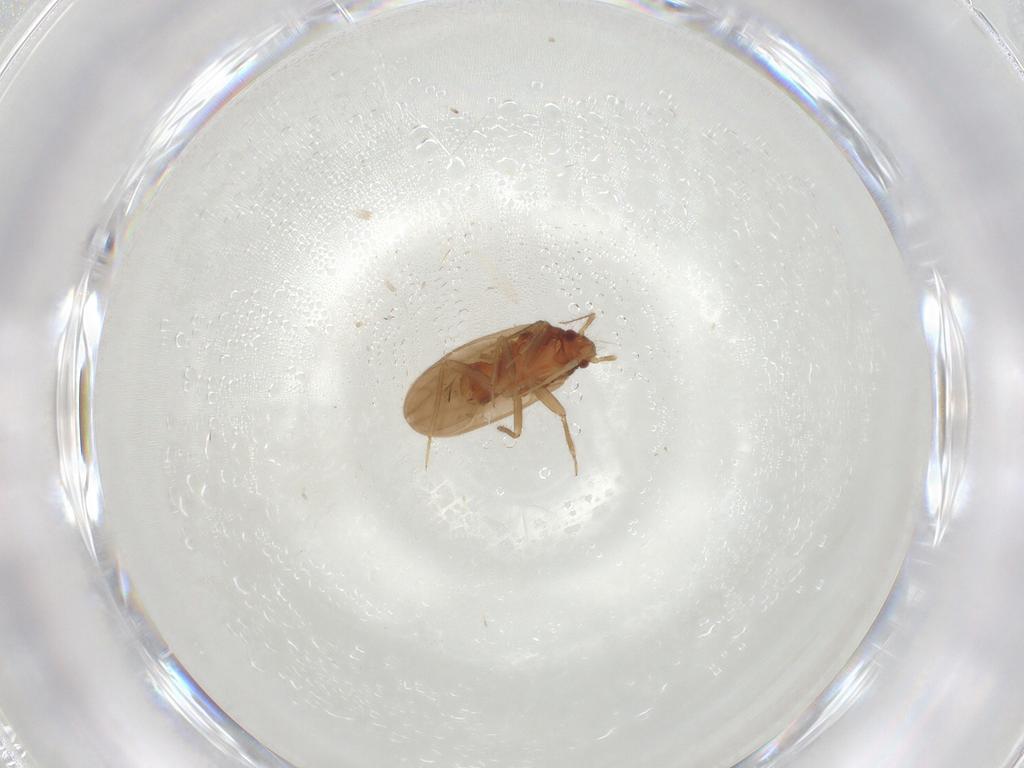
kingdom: Animalia
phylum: Arthropoda
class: Insecta
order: Hemiptera
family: Ceratocombidae
